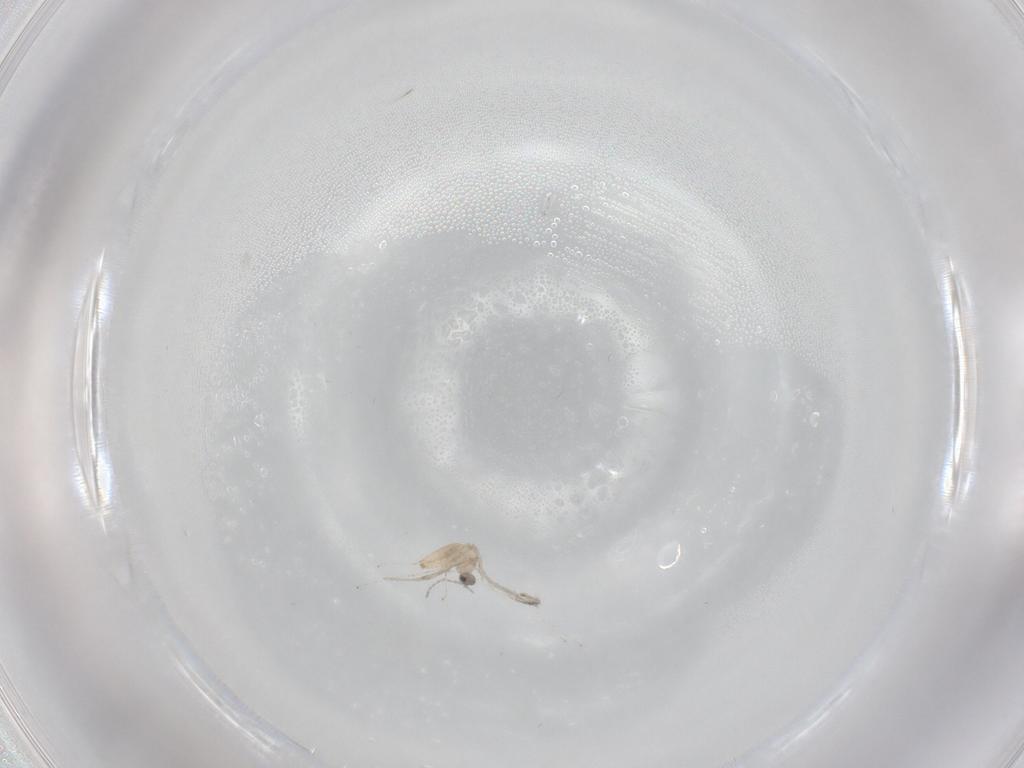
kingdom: Animalia
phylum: Arthropoda
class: Insecta
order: Diptera
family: Cecidomyiidae
